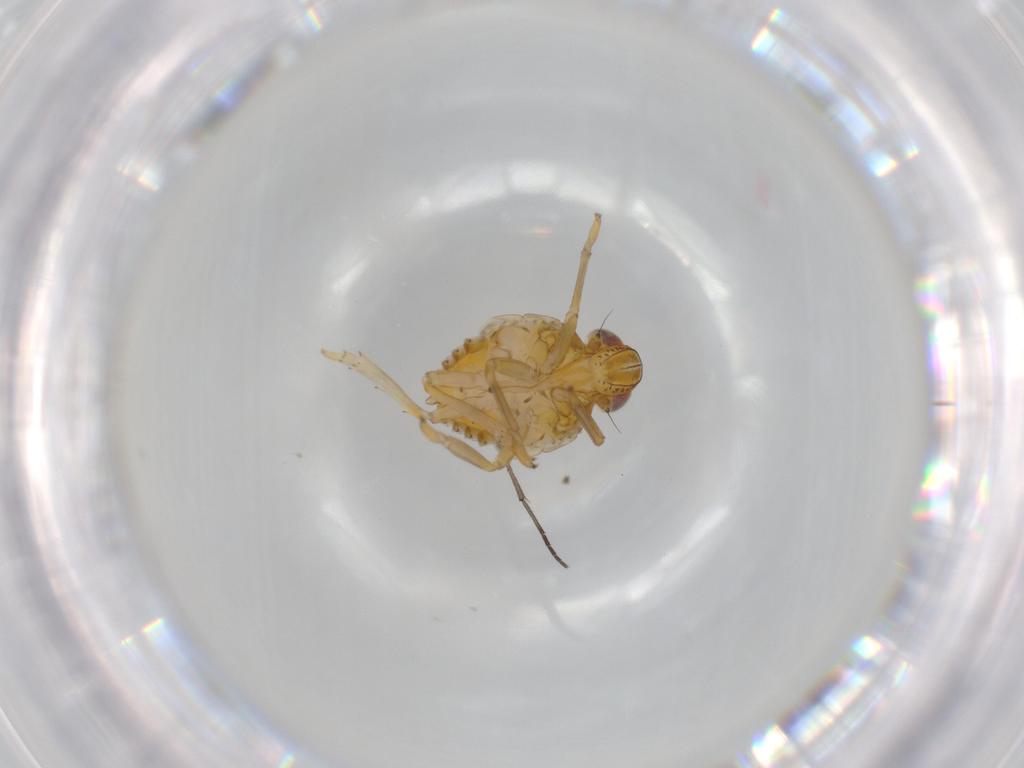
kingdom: Animalia
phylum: Arthropoda
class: Insecta
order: Hemiptera
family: Issidae
